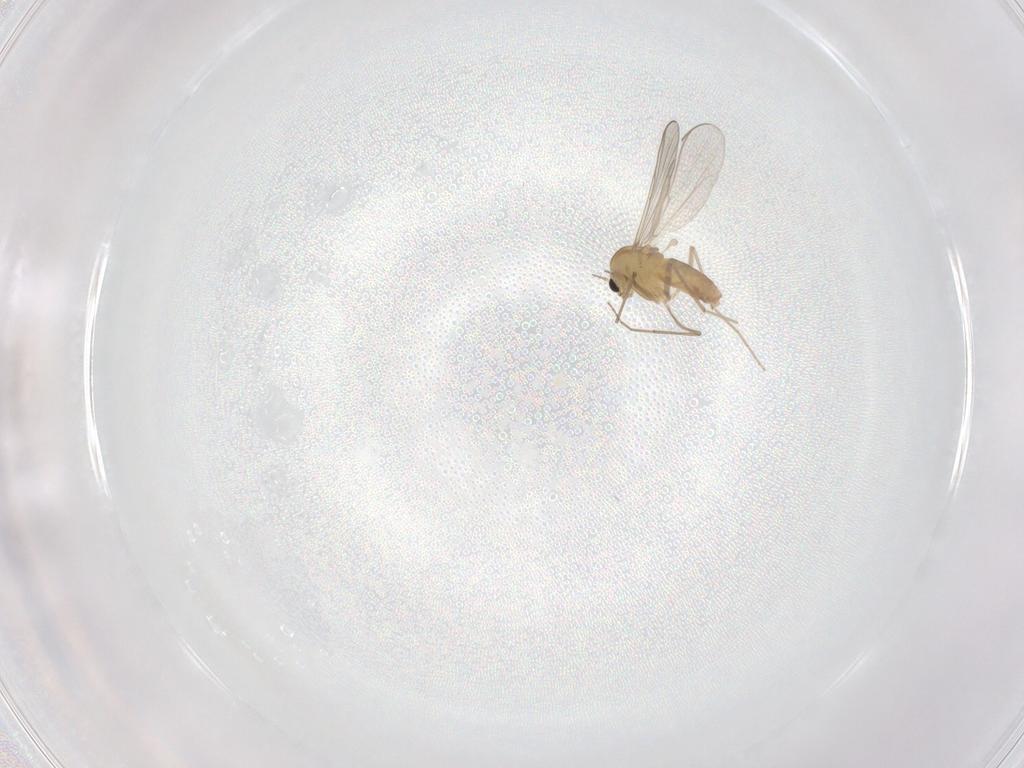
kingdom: Animalia
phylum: Arthropoda
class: Insecta
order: Diptera
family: Chironomidae
